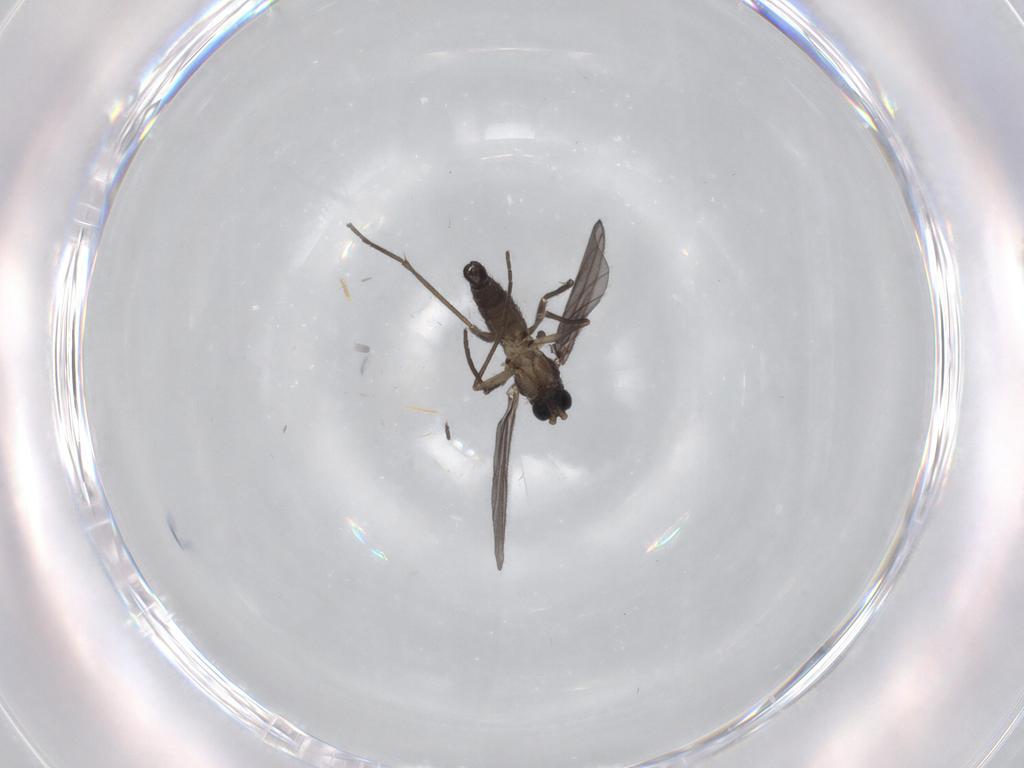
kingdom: Animalia
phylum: Arthropoda
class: Insecta
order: Diptera
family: Sciaridae
